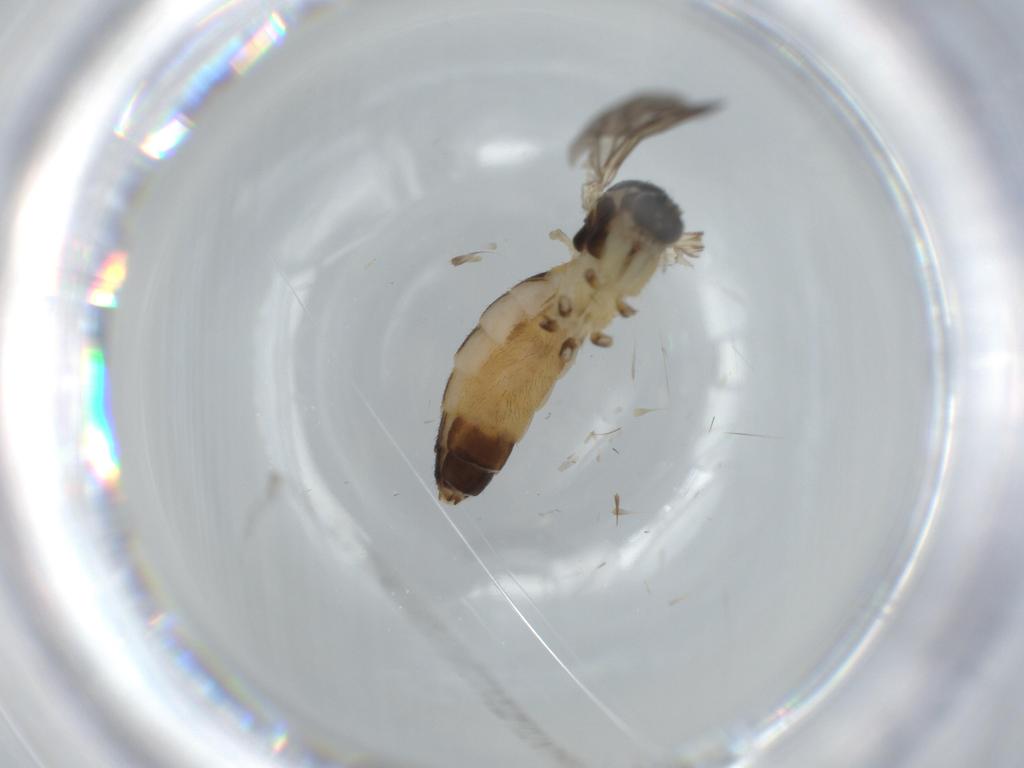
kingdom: Animalia
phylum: Arthropoda
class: Insecta
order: Diptera
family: Mycetophilidae
